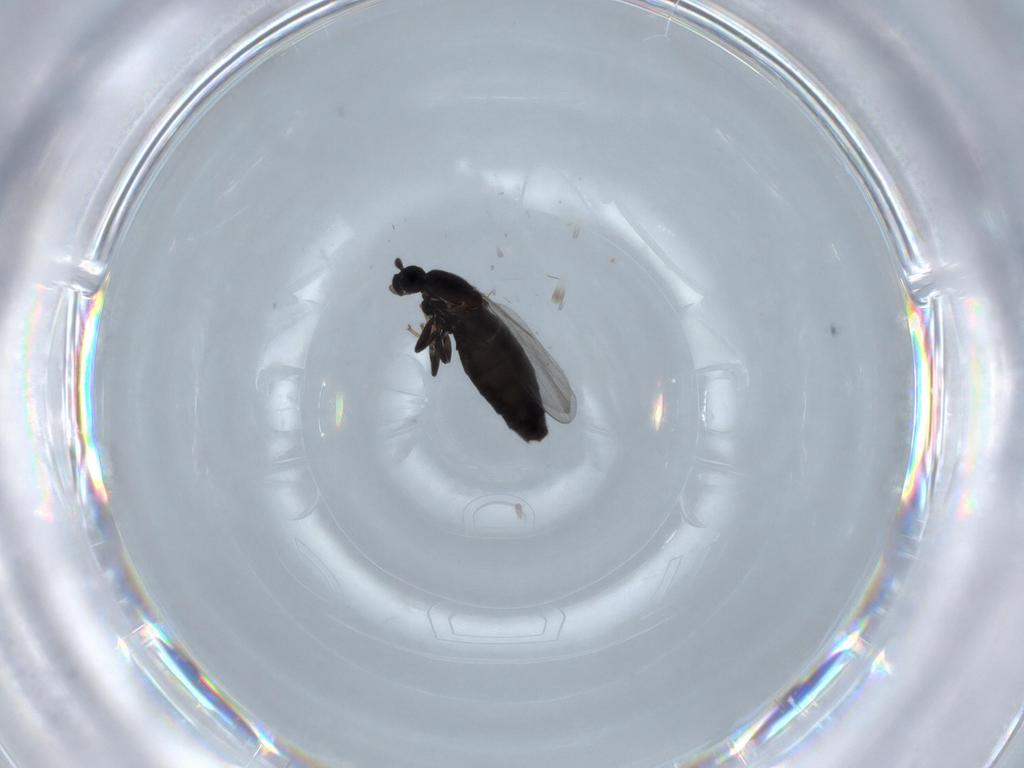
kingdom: Animalia
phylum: Arthropoda
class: Insecta
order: Diptera
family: Scatopsidae
